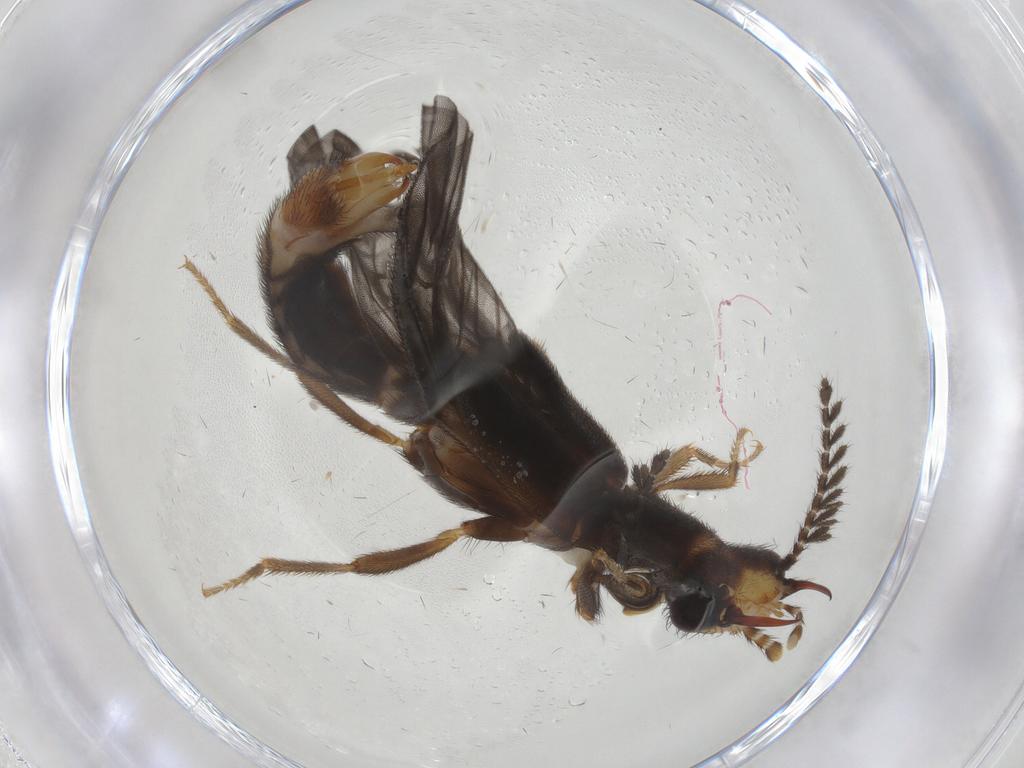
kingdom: Animalia
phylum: Arthropoda
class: Insecta
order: Coleoptera
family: Phengodidae
